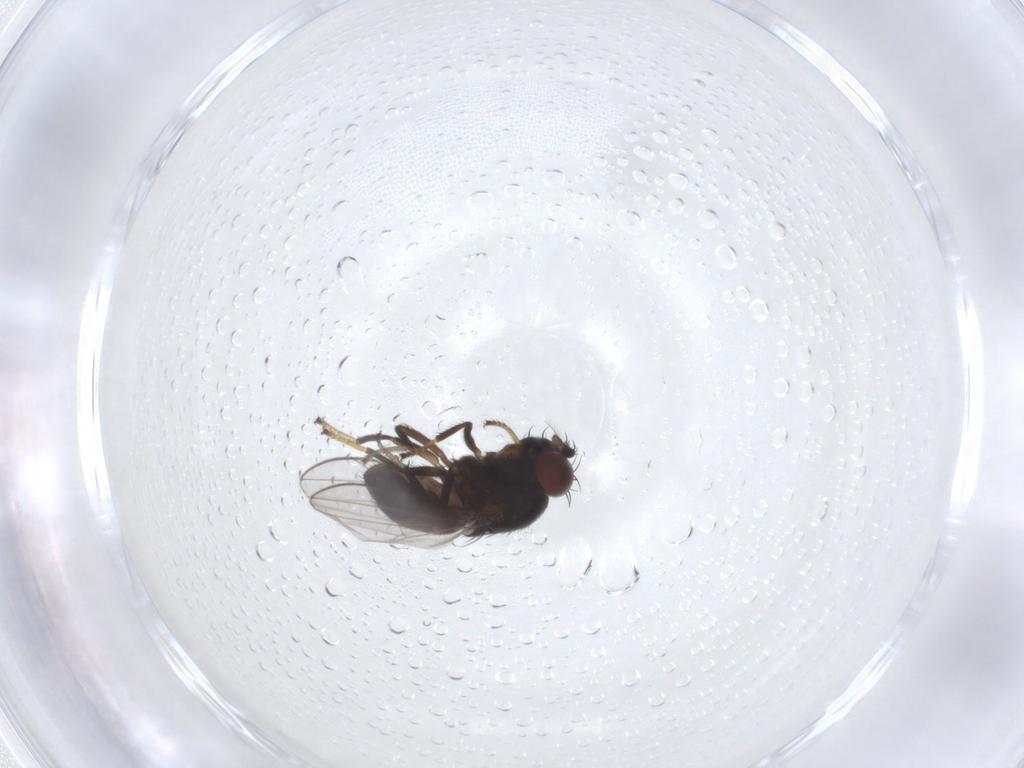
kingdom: Animalia
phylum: Arthropoda
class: Insecta
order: Diptera
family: Ephydridae
